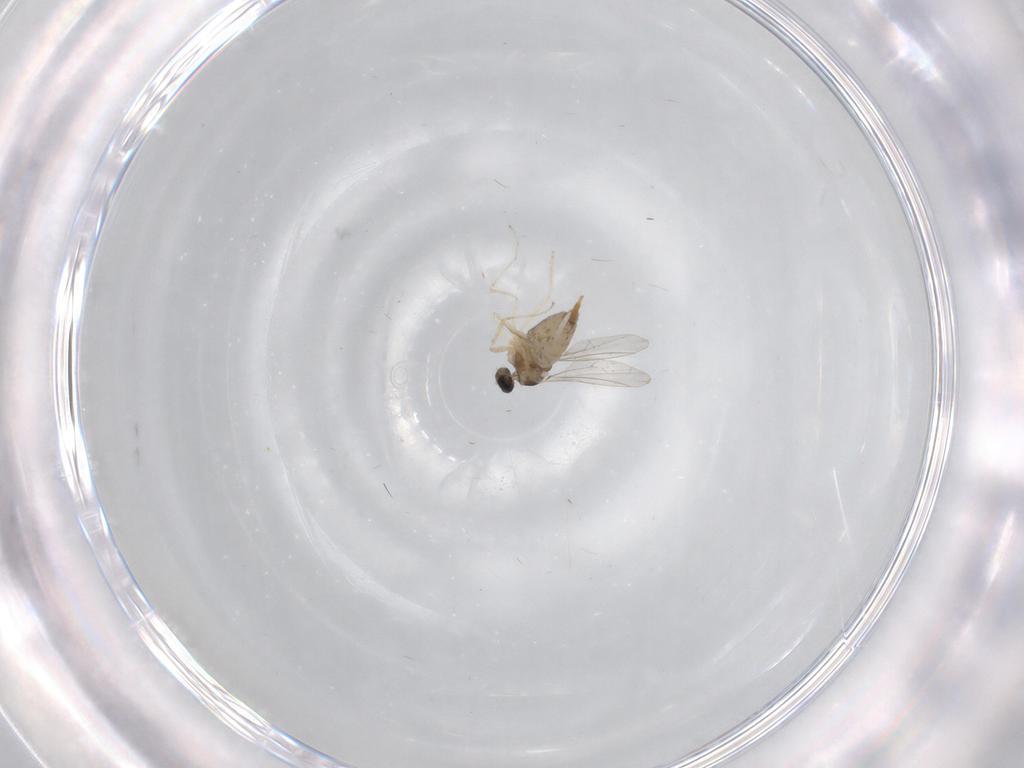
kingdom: Animalia
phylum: Arthropoda
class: Insecta
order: Diptera
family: Cecidomyiidae
